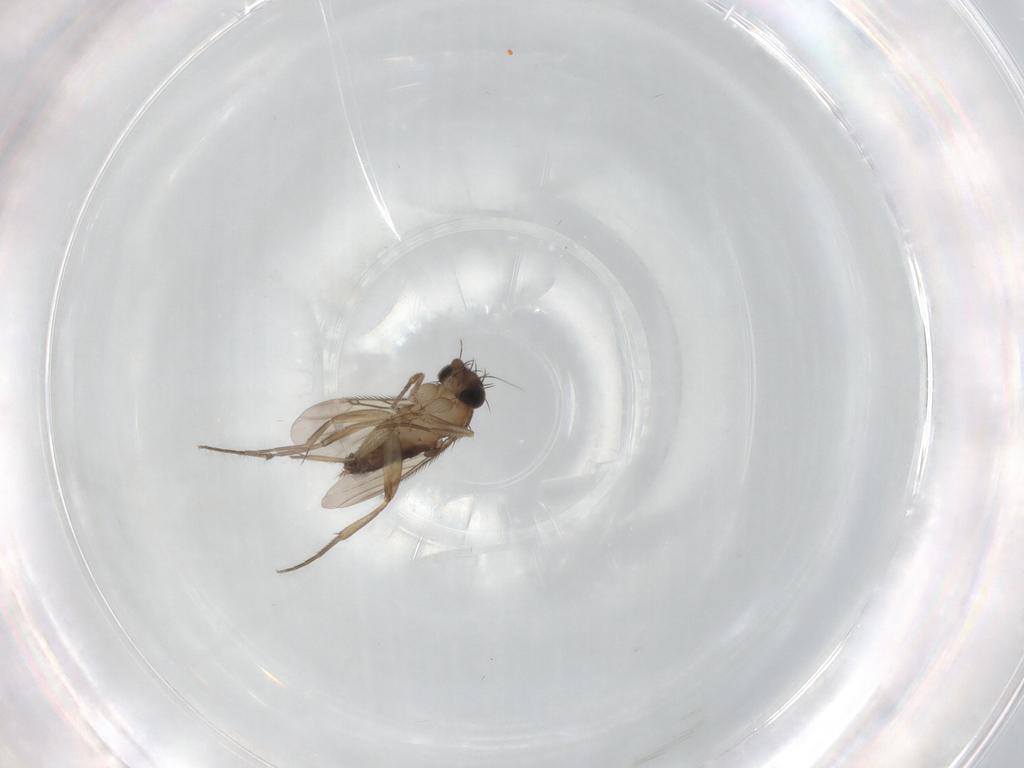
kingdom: Animalia
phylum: Arthropoda
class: Insecta
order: Diptera
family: Phoridae
